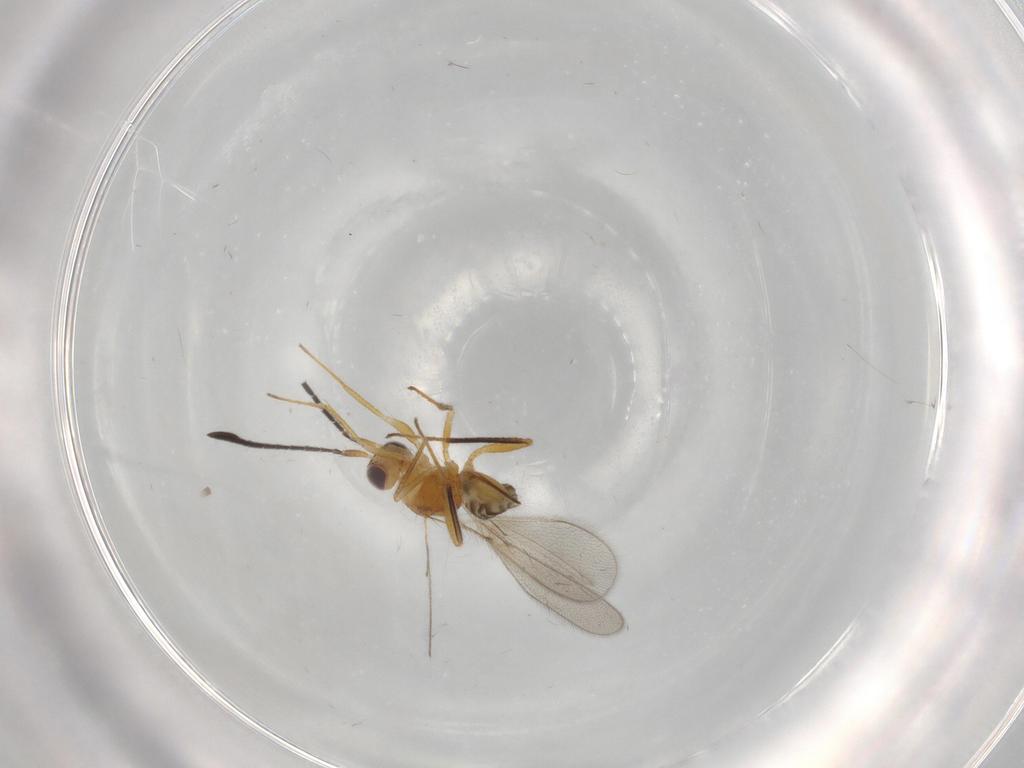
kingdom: Animalia
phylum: Arthropoda
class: Insecta
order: Hymenoptera
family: Mymaridae
